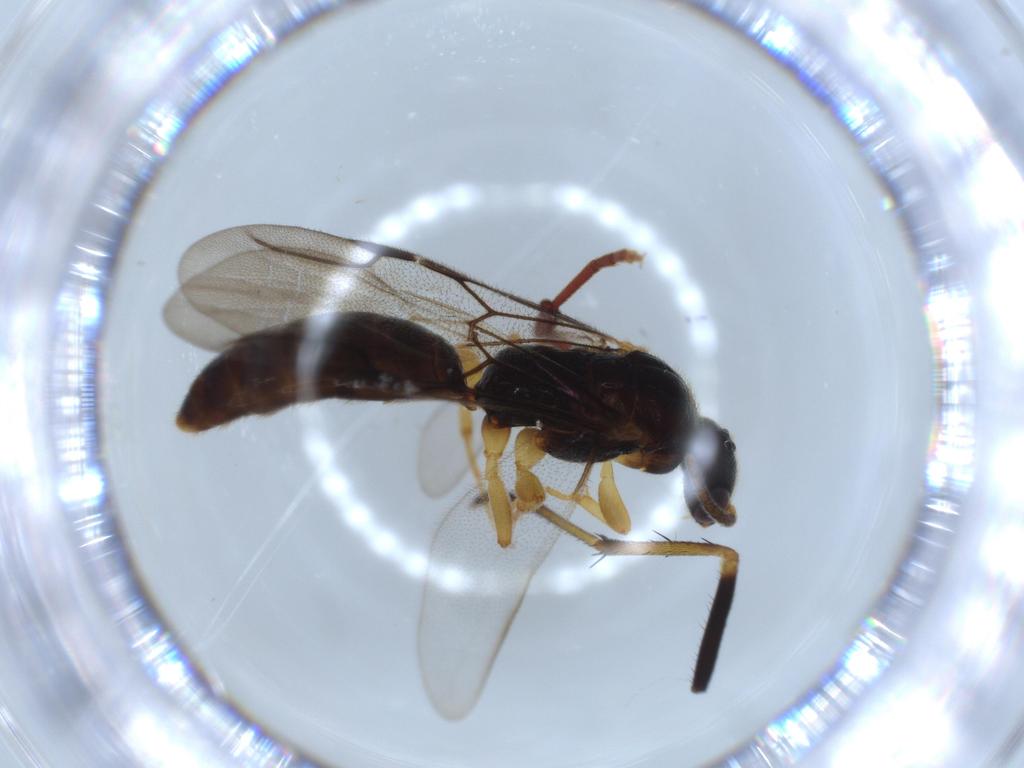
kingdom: Animalia
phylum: Arthropoda
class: Insecta
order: Hymenoptera
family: Bethylidae
